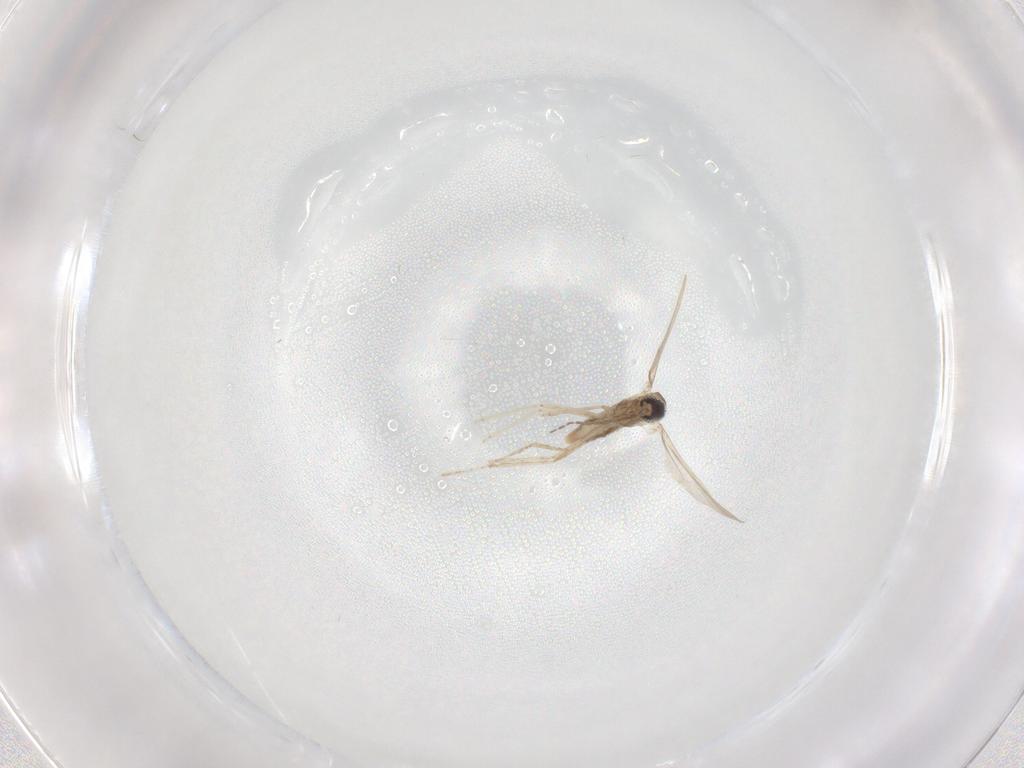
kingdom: Animalia
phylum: Arthropoda
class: Insecta
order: Diptera
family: Cecidomyiidae
